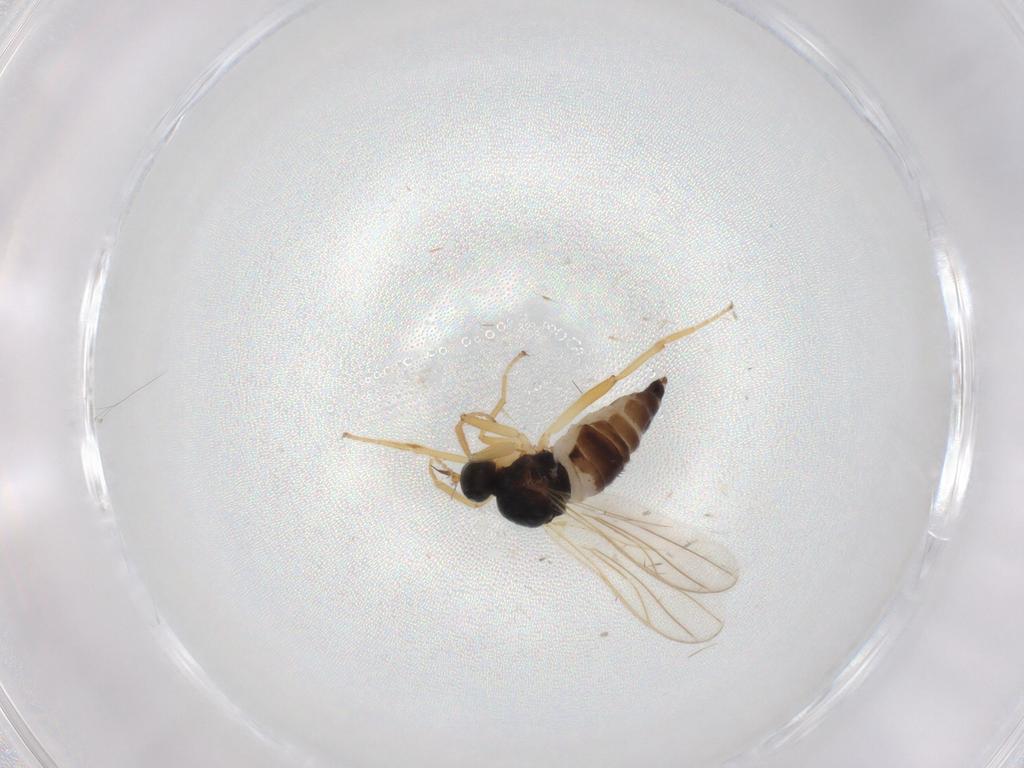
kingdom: Animalia
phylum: Arthropoda
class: Insecta
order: Diptera
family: Hybotidae
